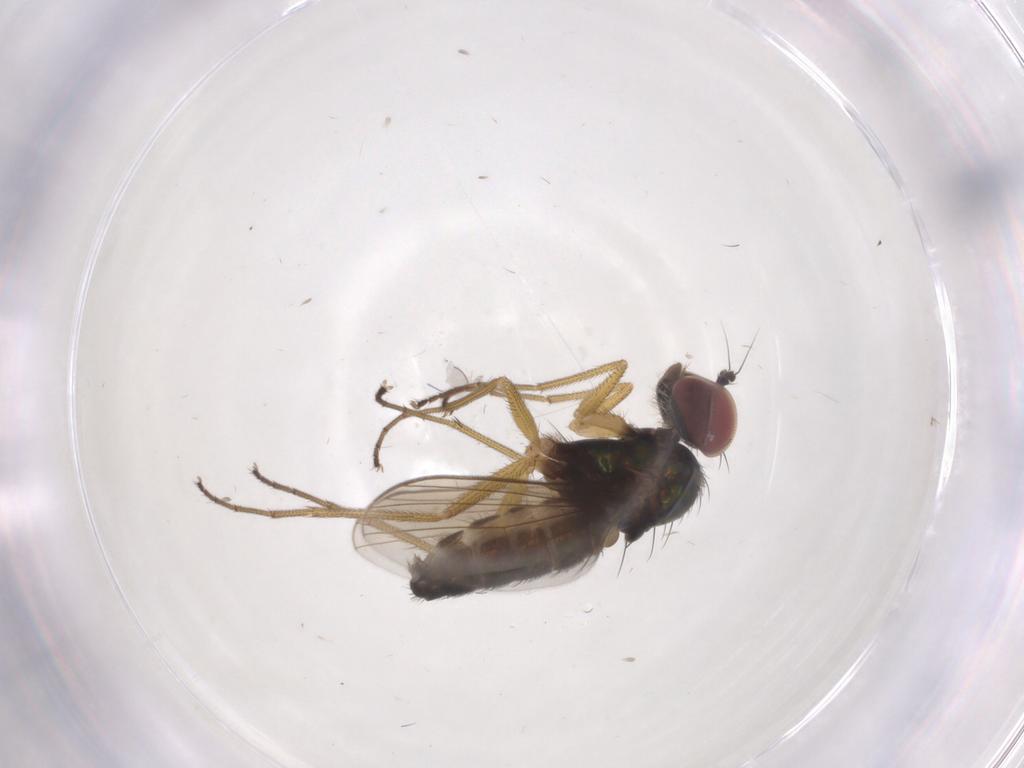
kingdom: Animalia
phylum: Arthropoda
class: Insecta
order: Diptera
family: Dolichopodidae
